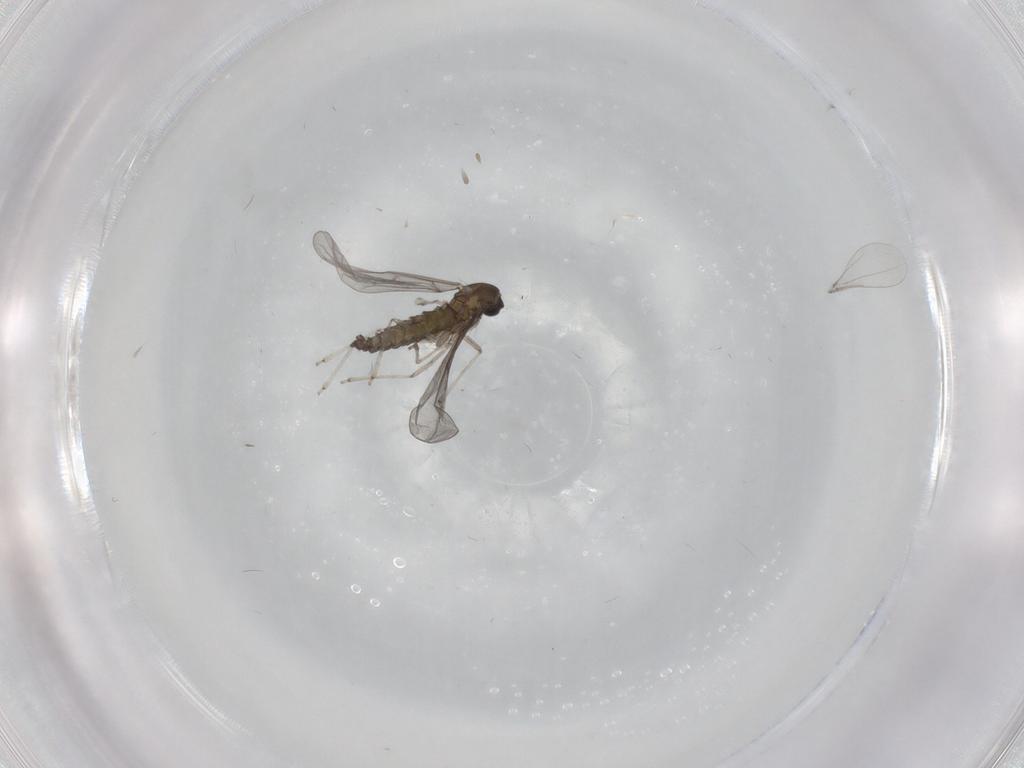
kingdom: Animalia
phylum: Arthropoda
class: Insecta
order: Diptera
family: Cecidomyiidae
